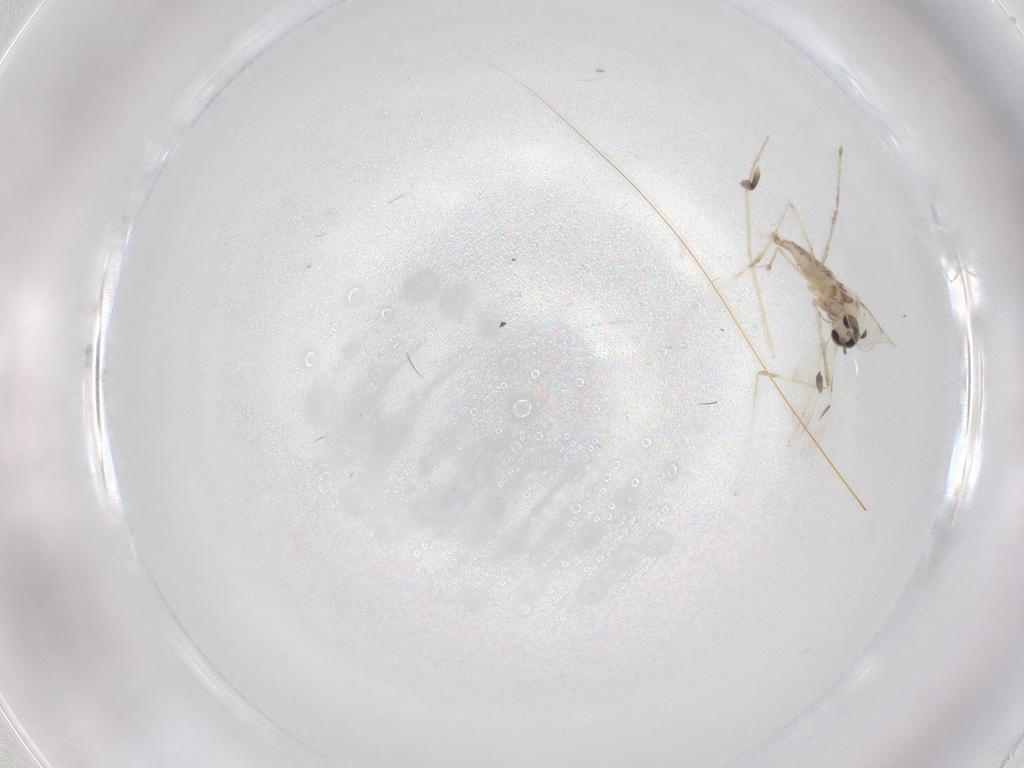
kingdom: Animalia
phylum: Arthropoda
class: Insecta
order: Diptera
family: Cecidomyiidae
